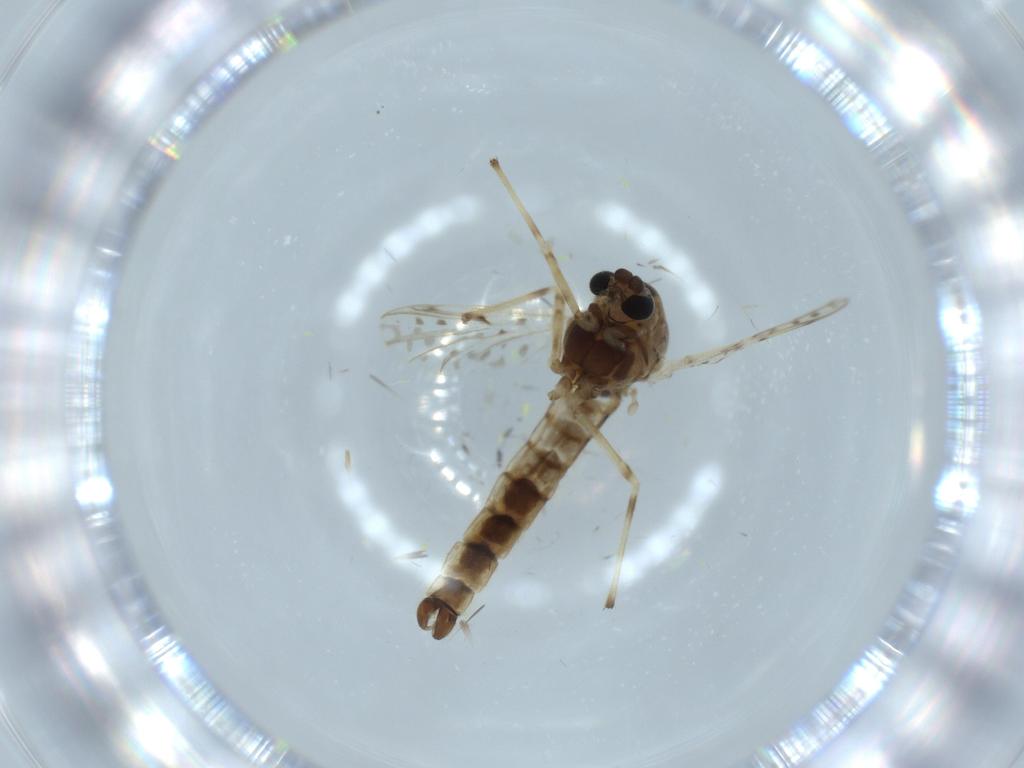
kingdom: Animalia
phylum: Arthropoda
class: Insecta
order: Diptera
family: Chironomidae
